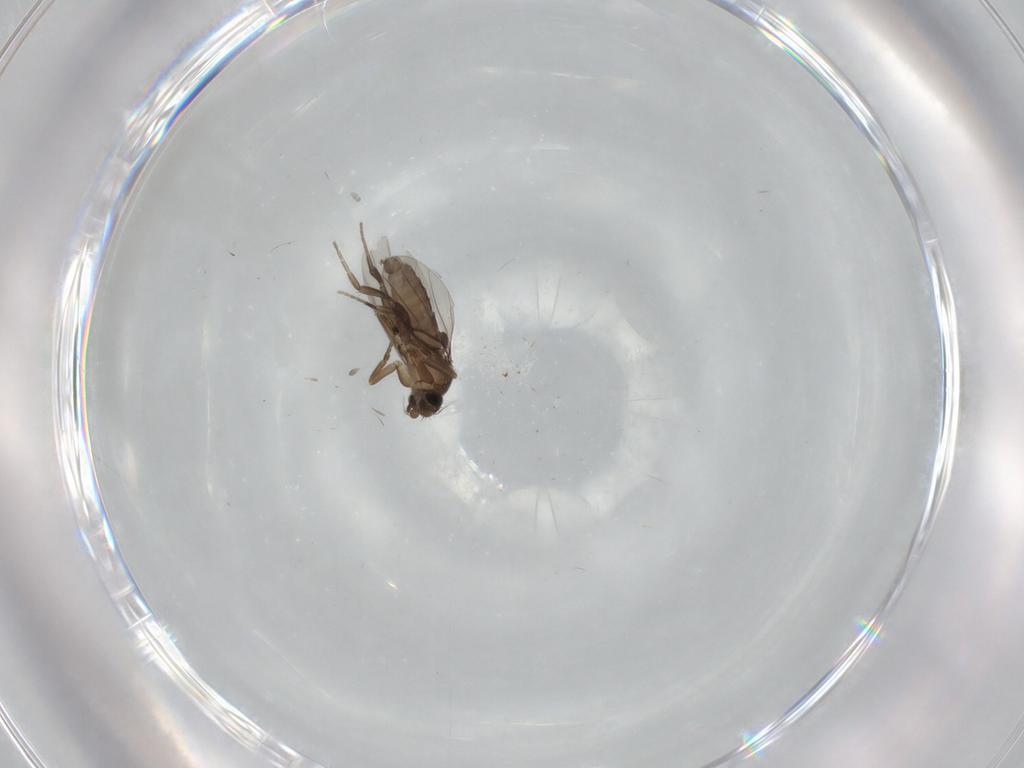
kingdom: Animalia
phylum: Arthropoda
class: Insecta
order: Diptera
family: Phoridae
